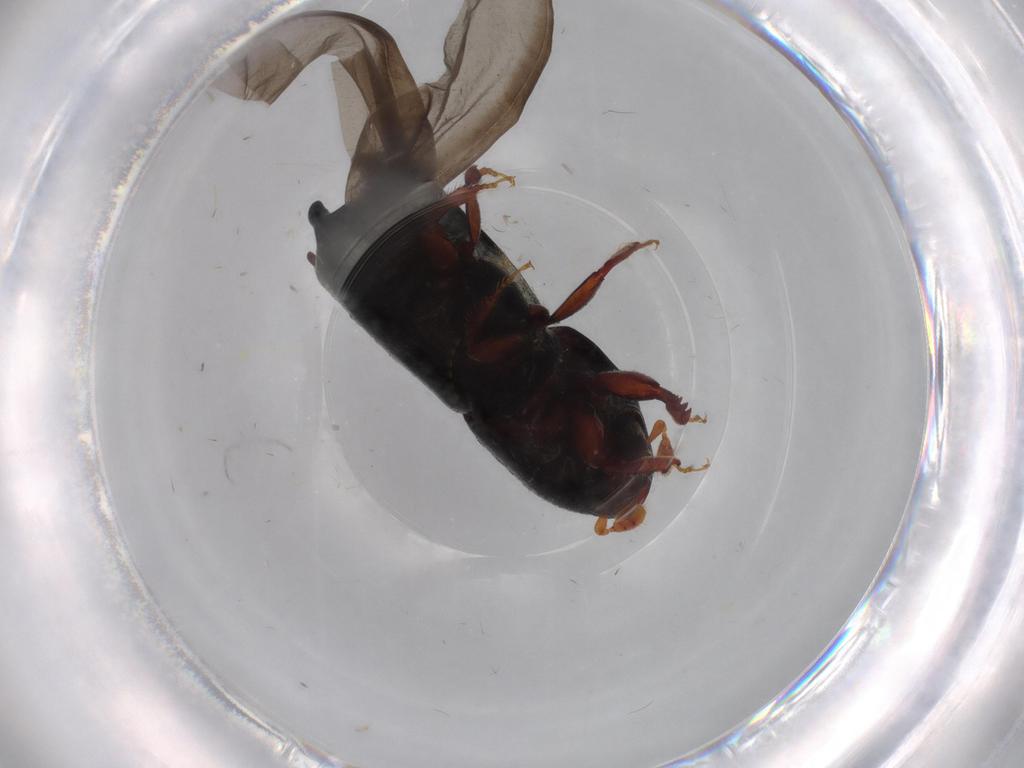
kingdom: Animalia
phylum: Arthropoda
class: Insecta
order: Coleoptera
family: Curculionidae
